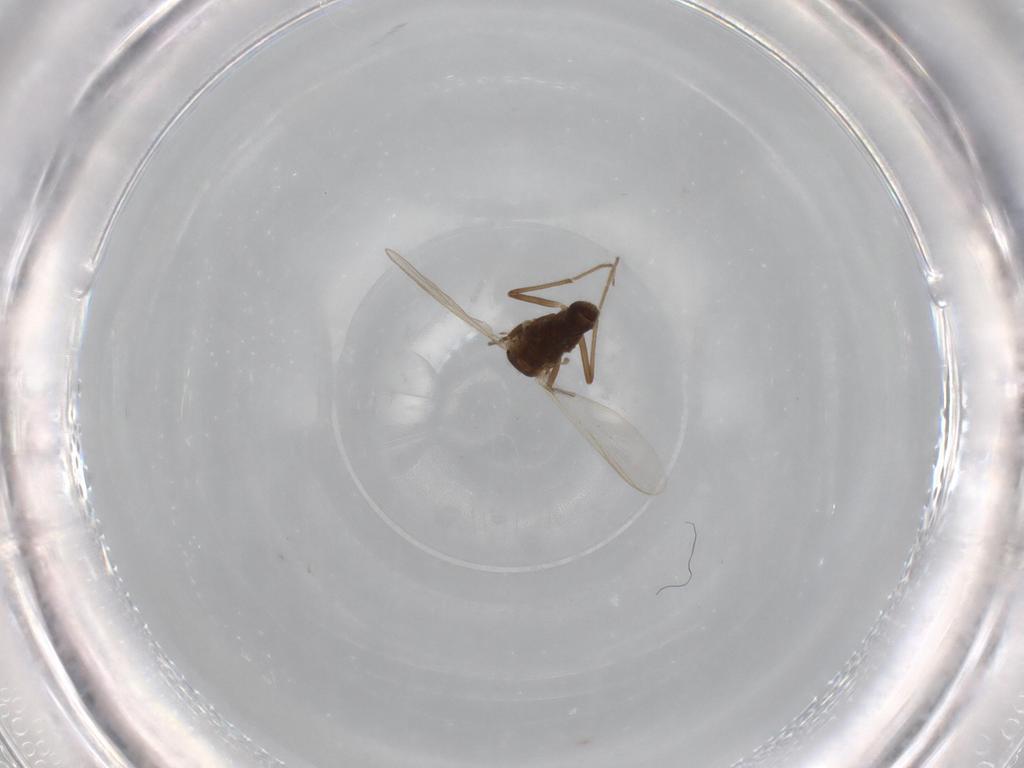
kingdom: Animalia
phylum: Arthropoda
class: Insecta
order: Diptera
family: Chironomidae
